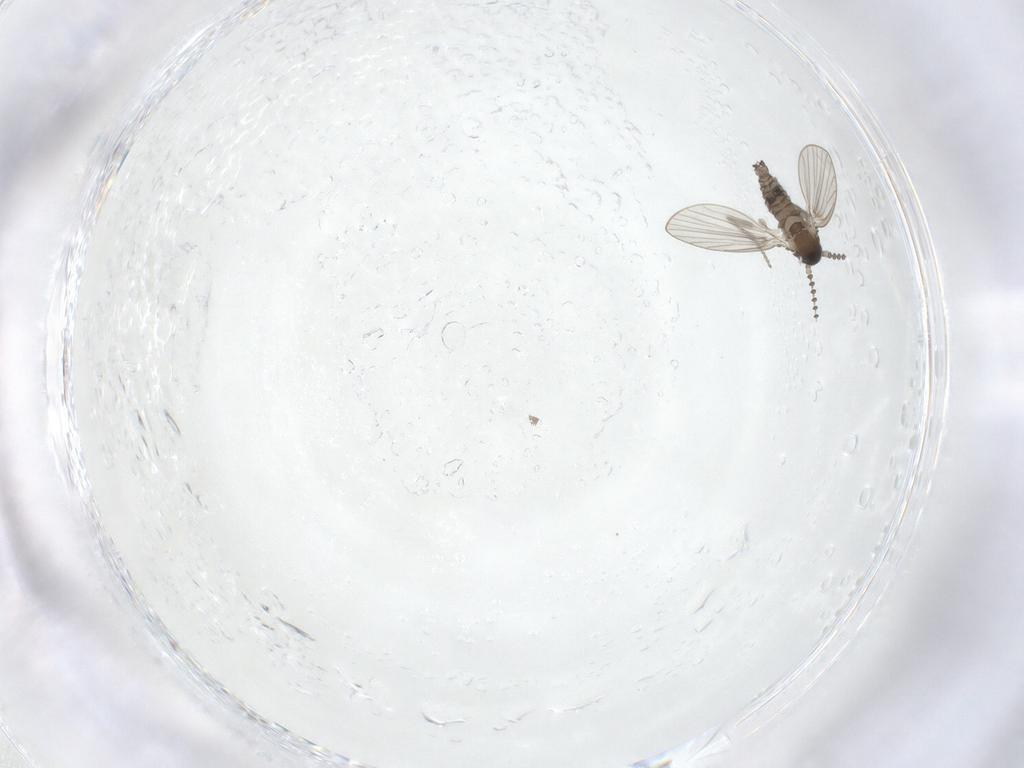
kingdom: Animalia
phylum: Arthropoda
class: Insecta
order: Diptera
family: Psychodidae
